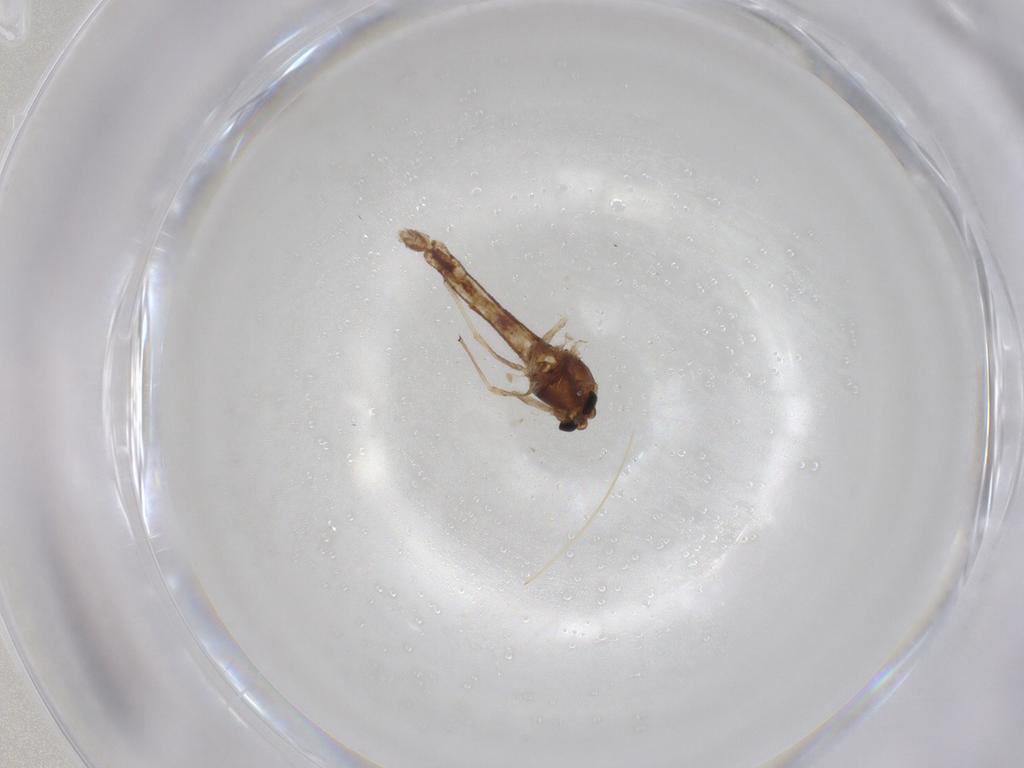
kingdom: Animalia
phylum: Arthropoda
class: Insecta
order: Diptera
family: Chironomidae
